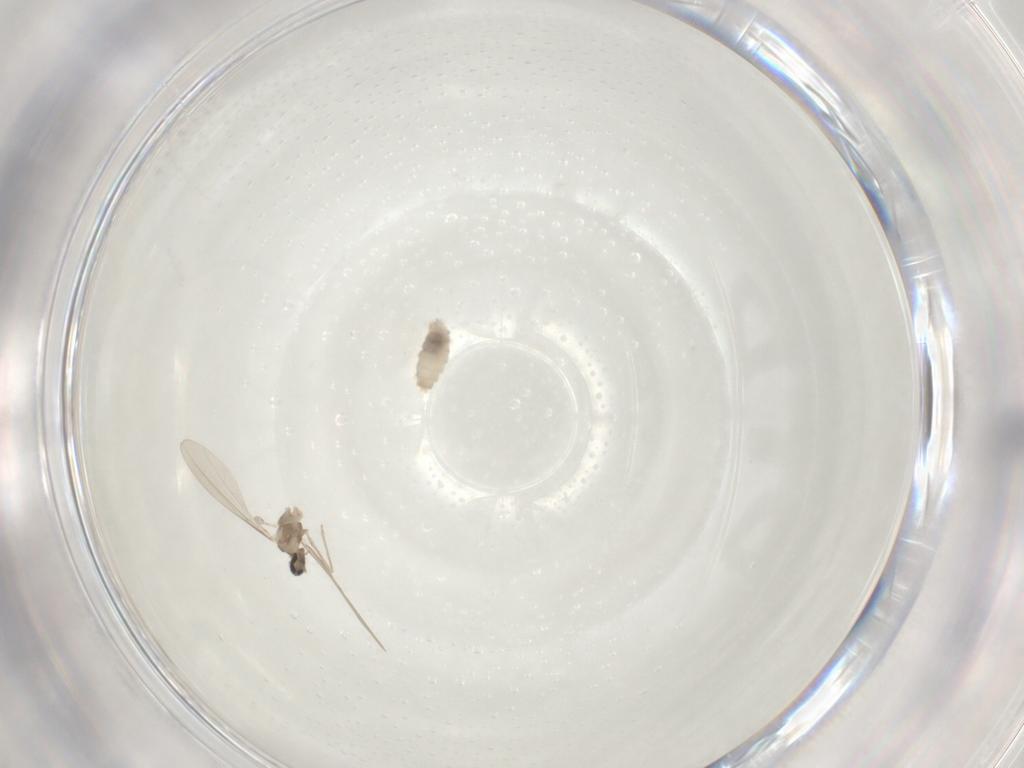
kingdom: Animalia
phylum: Arthropoda
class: Insecta
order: Diptera
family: Cecidomyiidae
